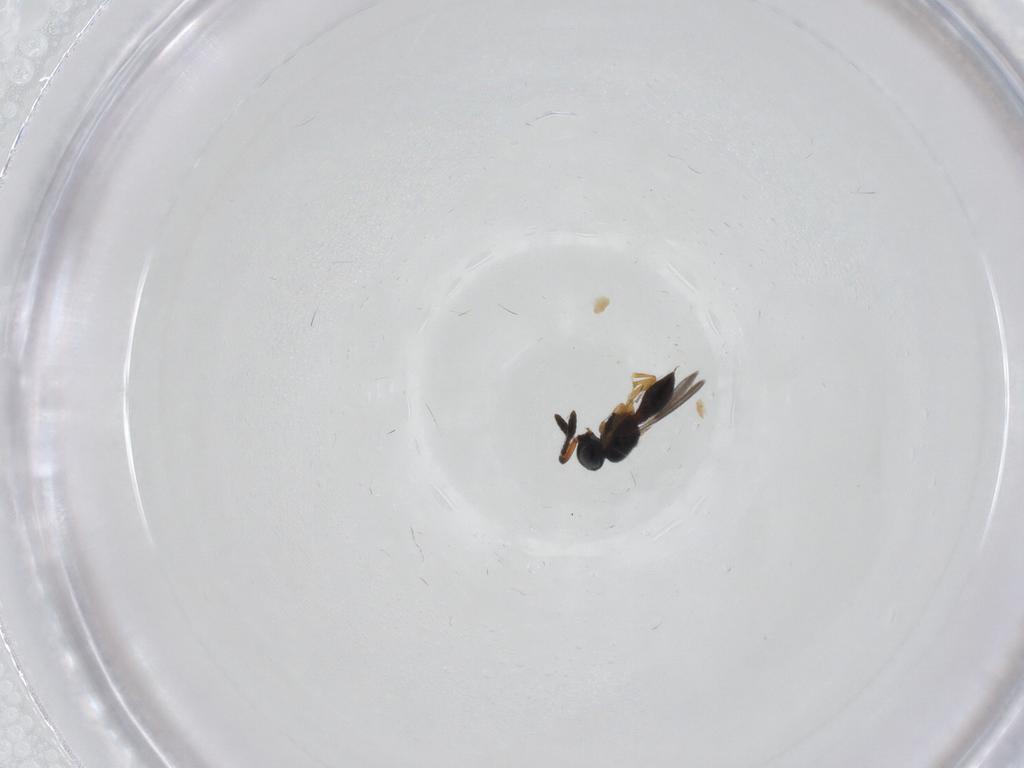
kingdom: Animalia
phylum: Arthropoda
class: Insecta
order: Hymenoptera
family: Scelionidae
